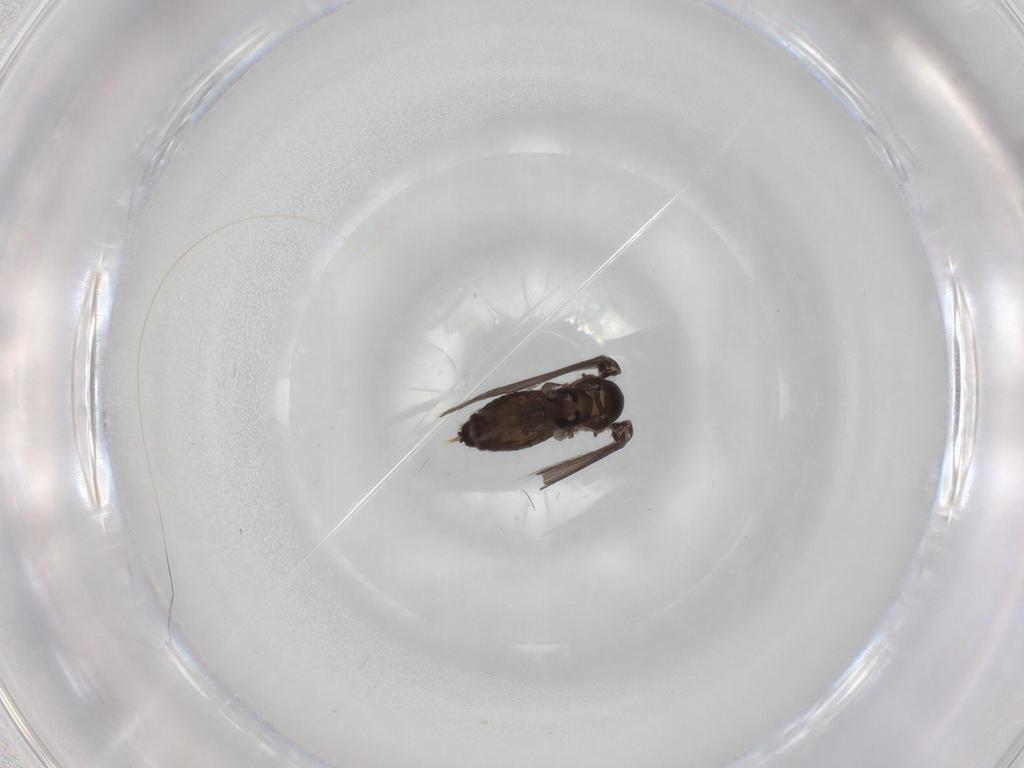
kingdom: Animalia
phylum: Arthropoda
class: Insecta
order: Diptera
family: Psychodidae
